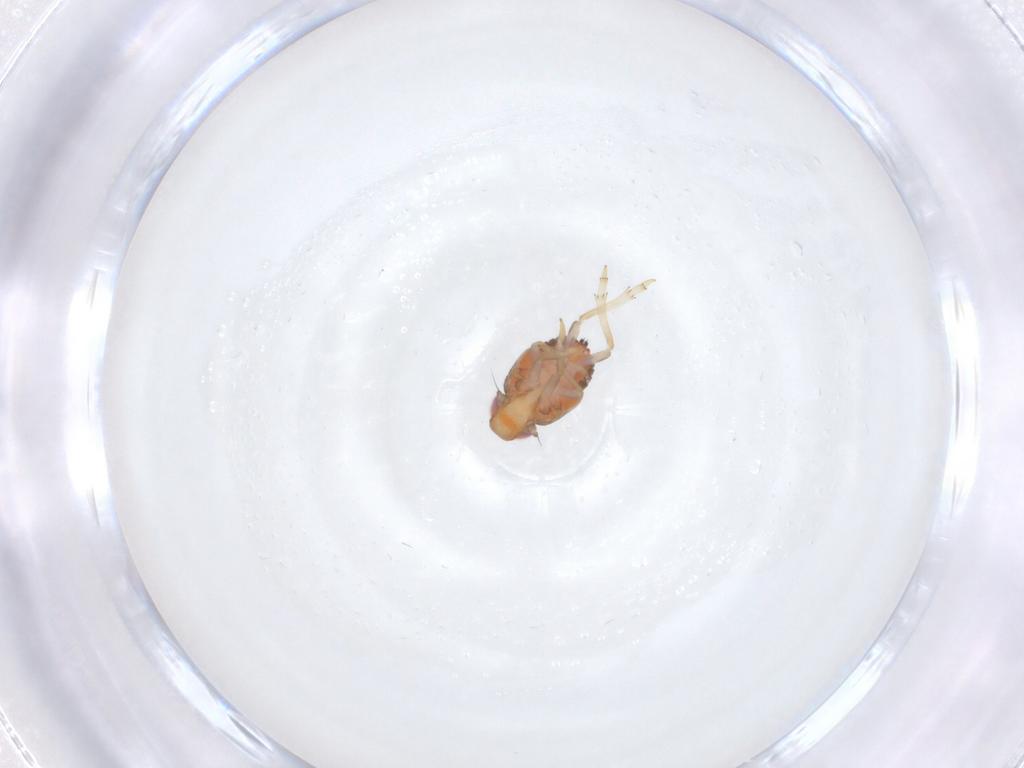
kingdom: Animalia
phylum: Arthropoda
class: Insecta
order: Hemiptera
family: Issidae
